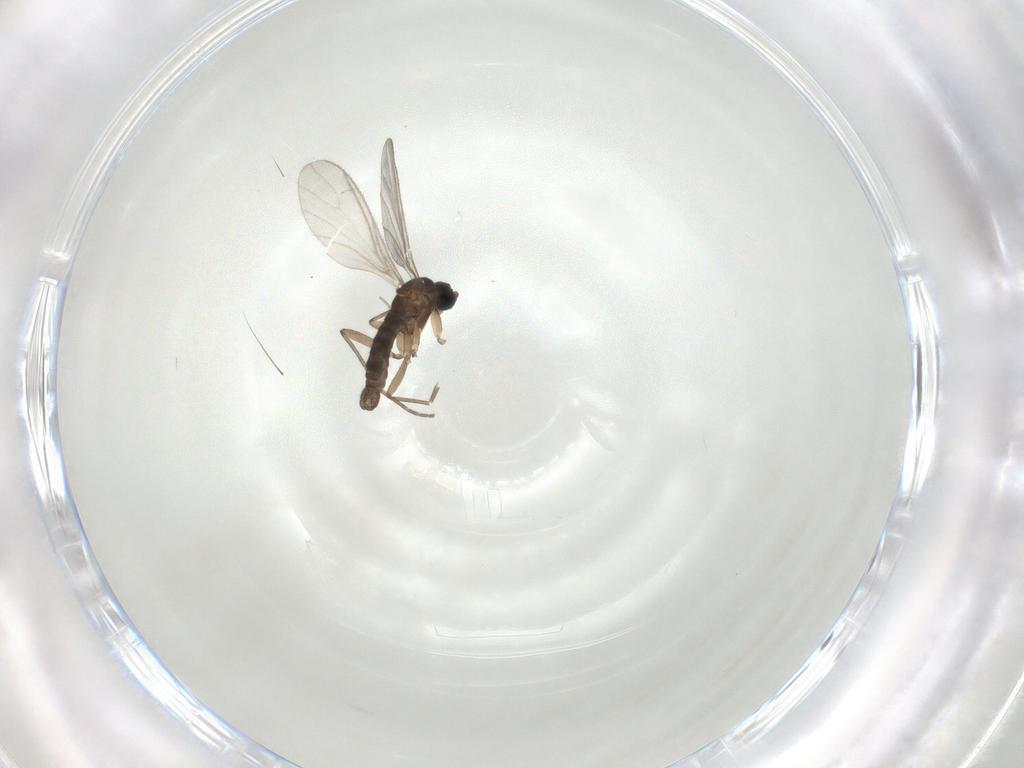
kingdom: Animalia
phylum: Arthropoda
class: Insecta
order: Diptera
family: Sciaridae
